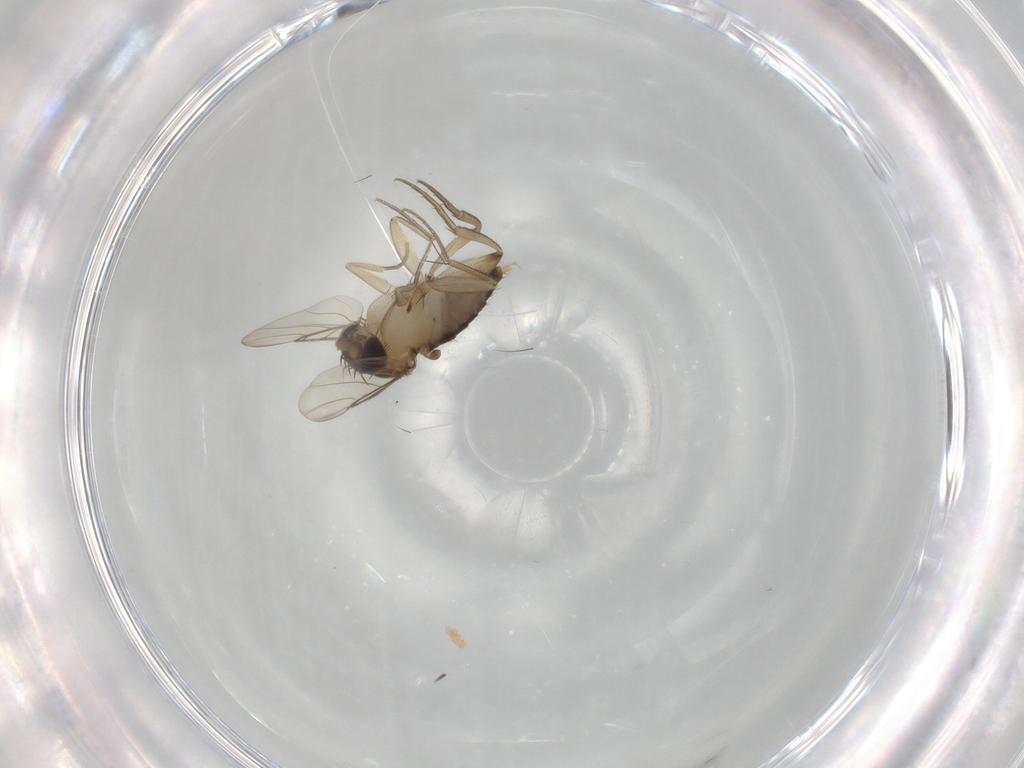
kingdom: Animalia
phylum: Arthropoda
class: Insecta
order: Diptera
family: Phoridae
